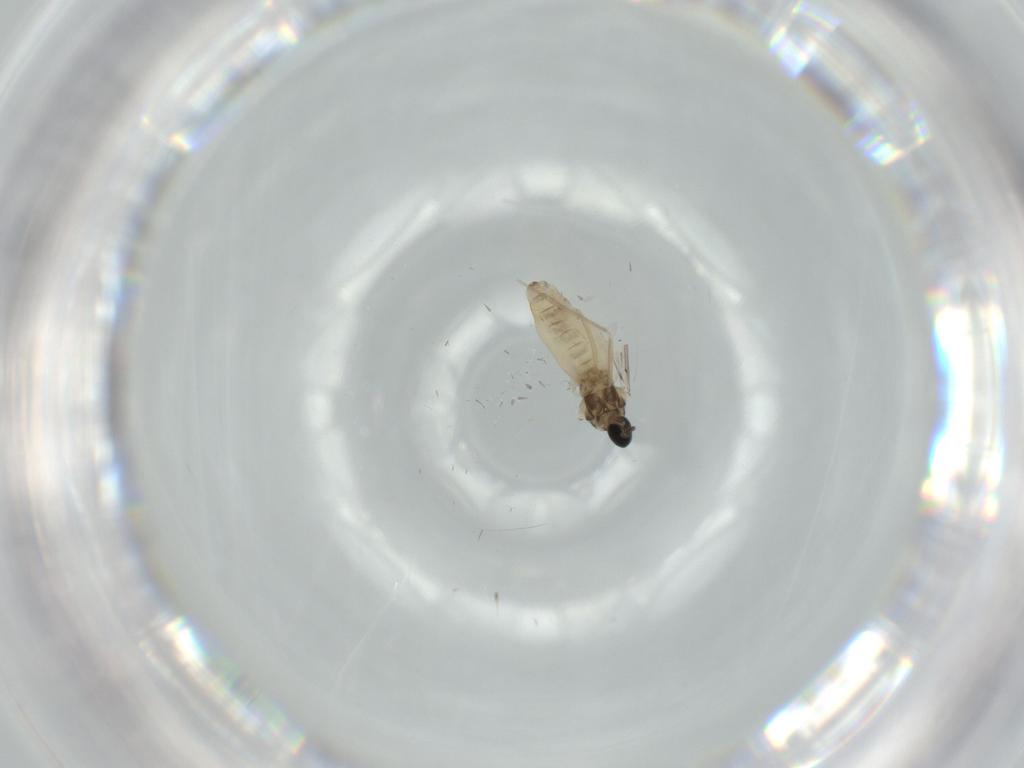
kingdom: Animalia
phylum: Arthropoda
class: Insecta
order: Diptera
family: Cecidomyiidae
